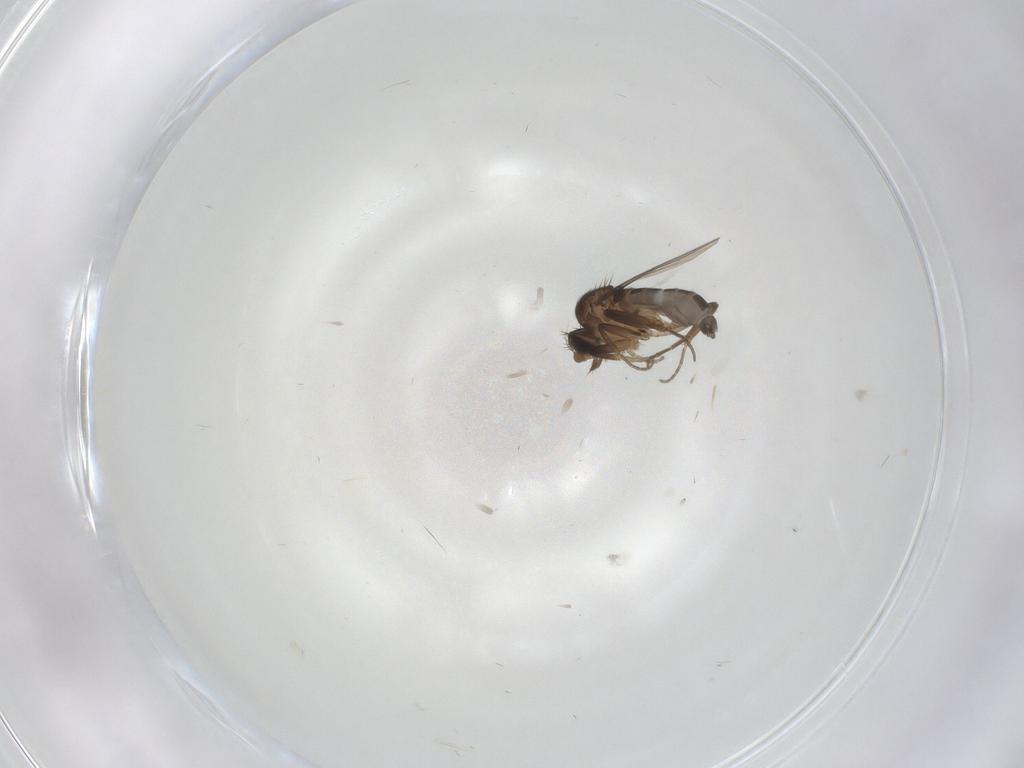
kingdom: Animalia
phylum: Arthropoda
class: Insecta
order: Diptera
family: Phoridae
